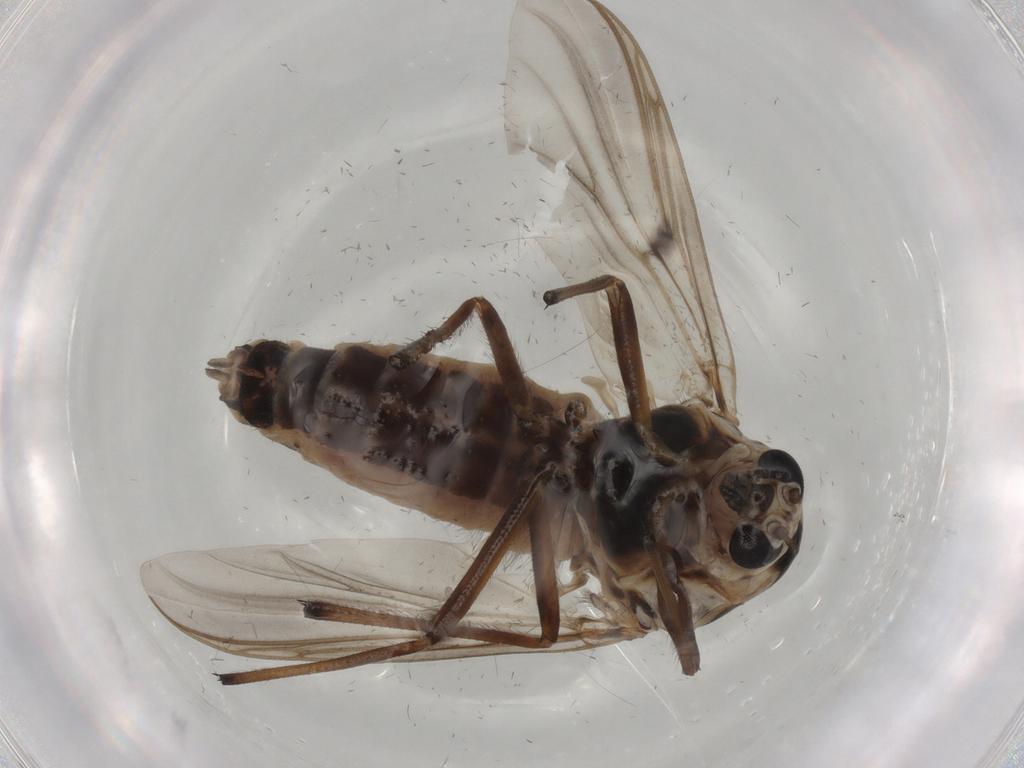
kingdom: Animalia
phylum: Arthropoda
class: Insecta
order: Diptera
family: Chironomidae
